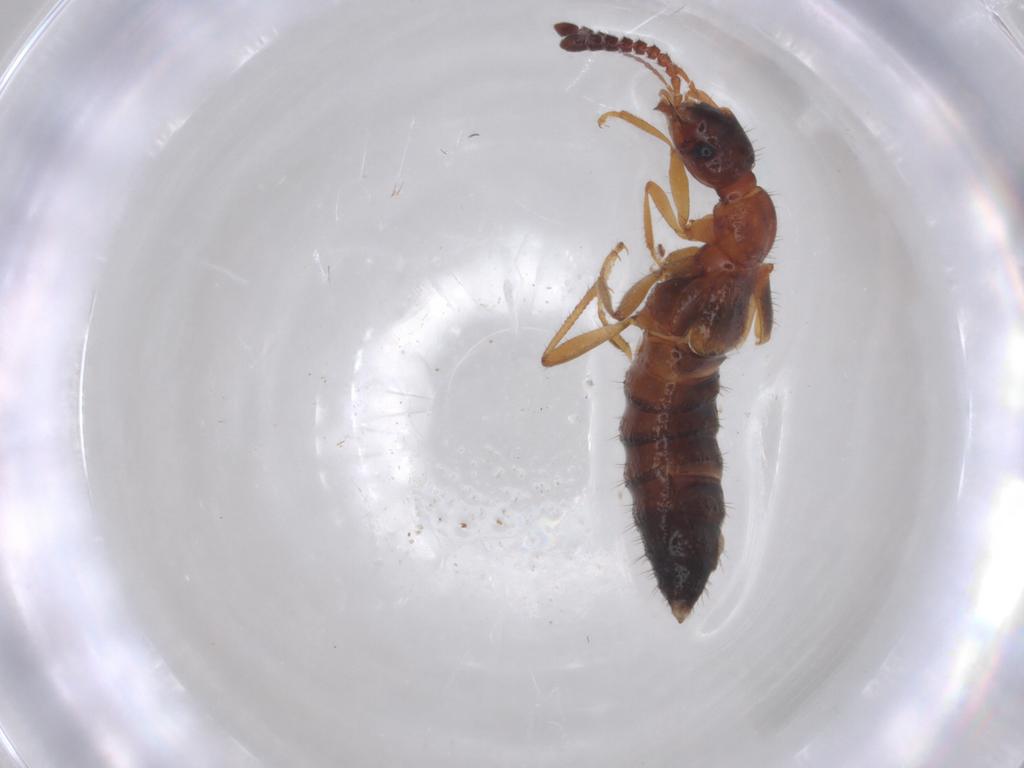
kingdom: Animalia
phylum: Arthropoda
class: Insecta
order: Coleoptera
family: Staphylinidae
